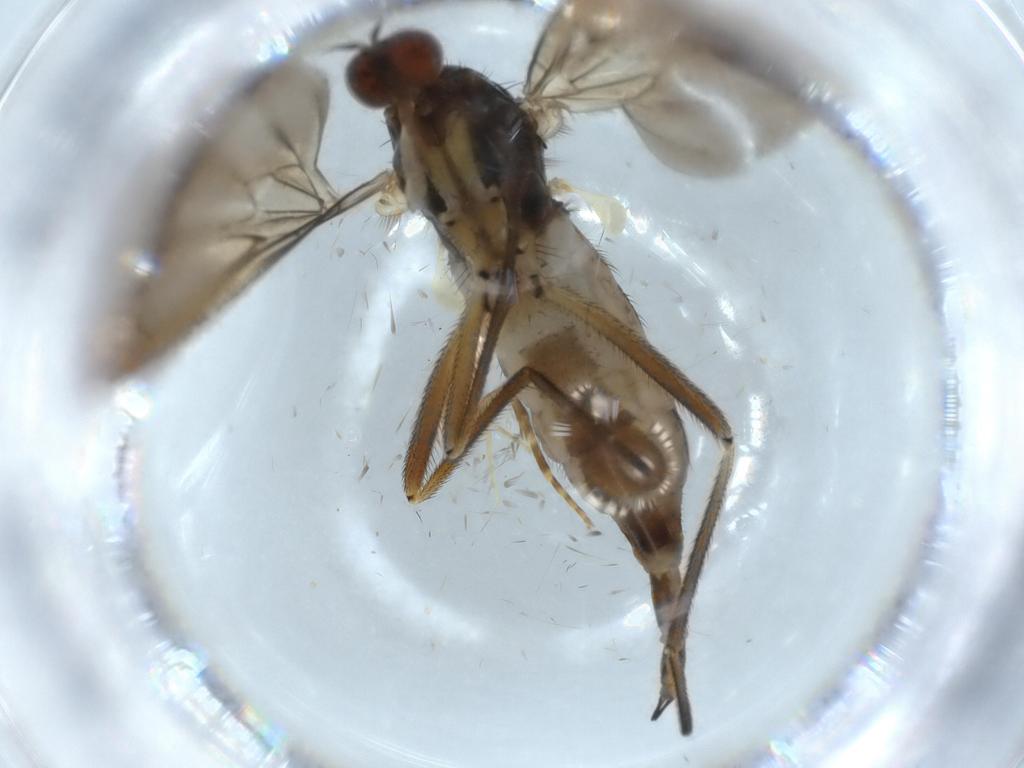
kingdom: Animalia
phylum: Arthropoda
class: Insecta
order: Diptera
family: Empididae
